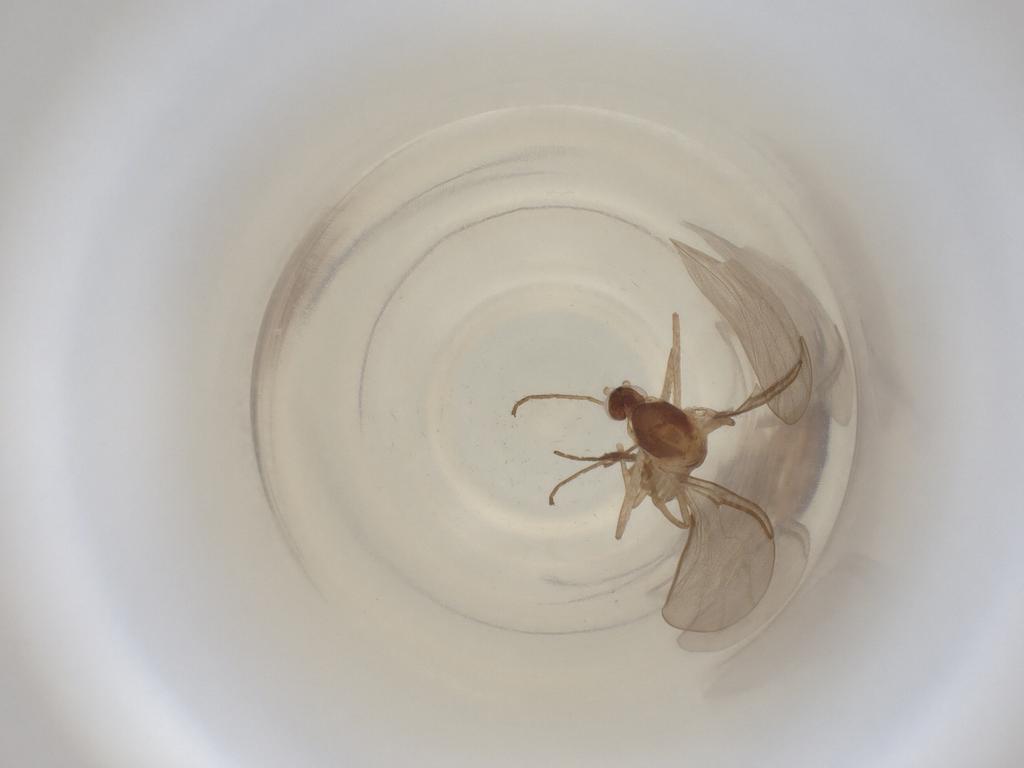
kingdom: Animalia
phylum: Arthropoda
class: Insecta
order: Diptera
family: Cecidomyiidae
